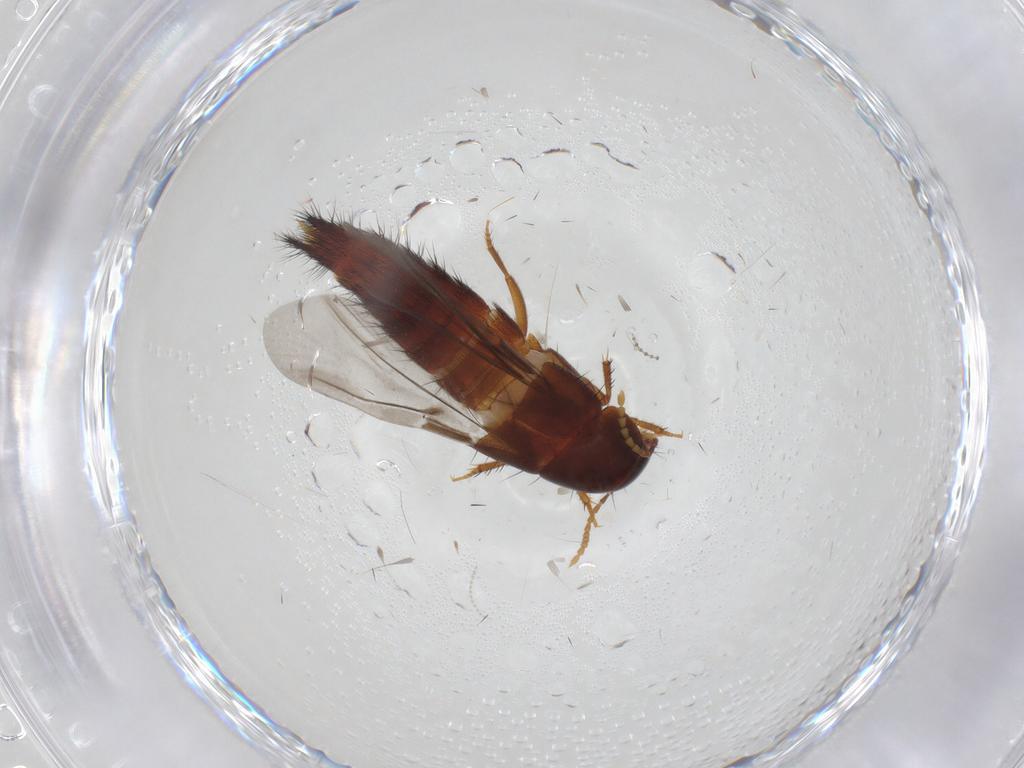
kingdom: Animalia
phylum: Arthropoda
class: Insecta
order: Coleoptera
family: Staphylinidae
